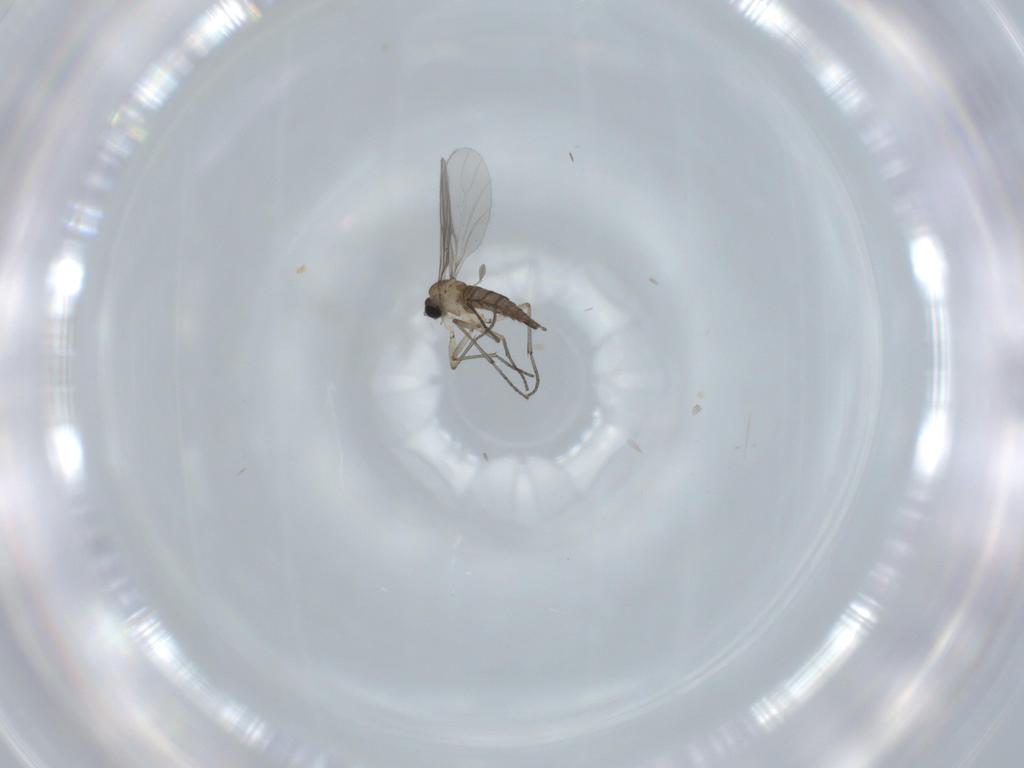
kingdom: Animalia
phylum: Arthropoda
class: Insecta
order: Diptera
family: Sciaridae
